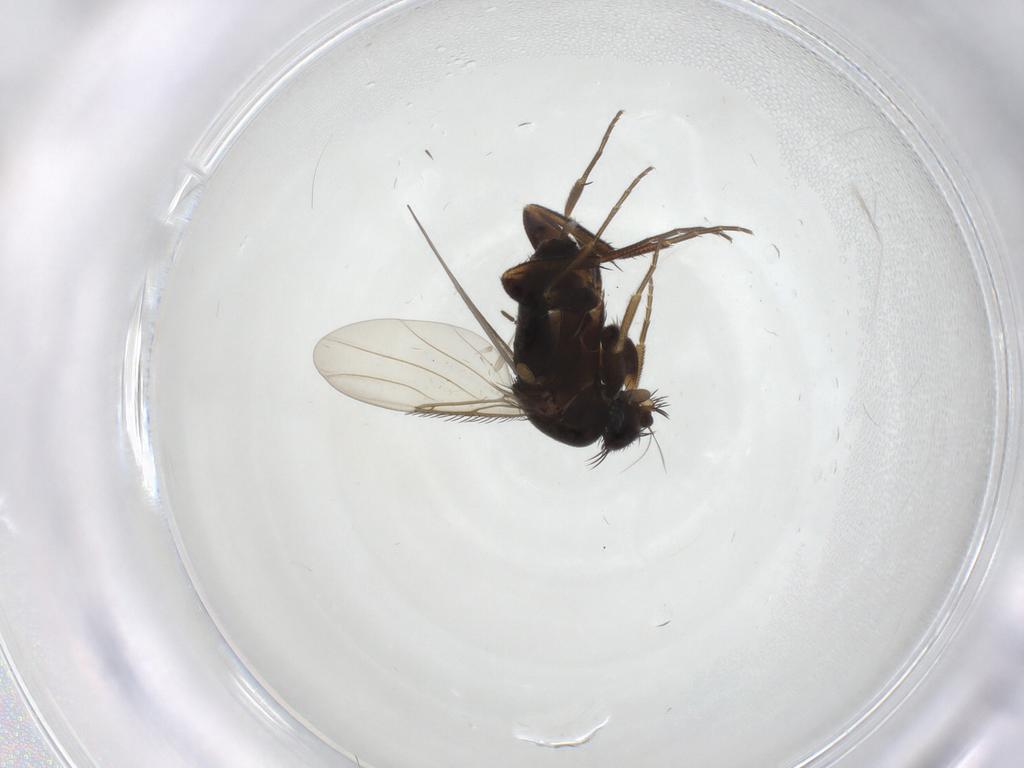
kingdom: Animalia
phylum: Arthropoda
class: Insecta
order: Diptera
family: Phoridae
